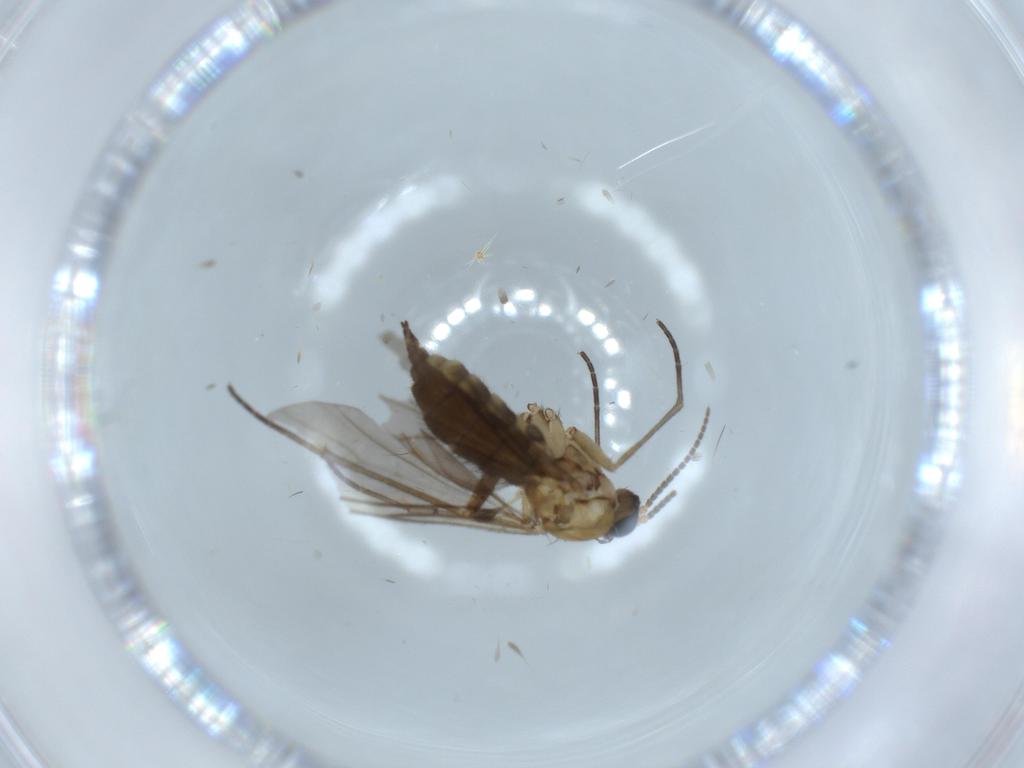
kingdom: Animalia
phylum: Arthropoda
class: Insecta
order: Diptera
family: Sciaridae
